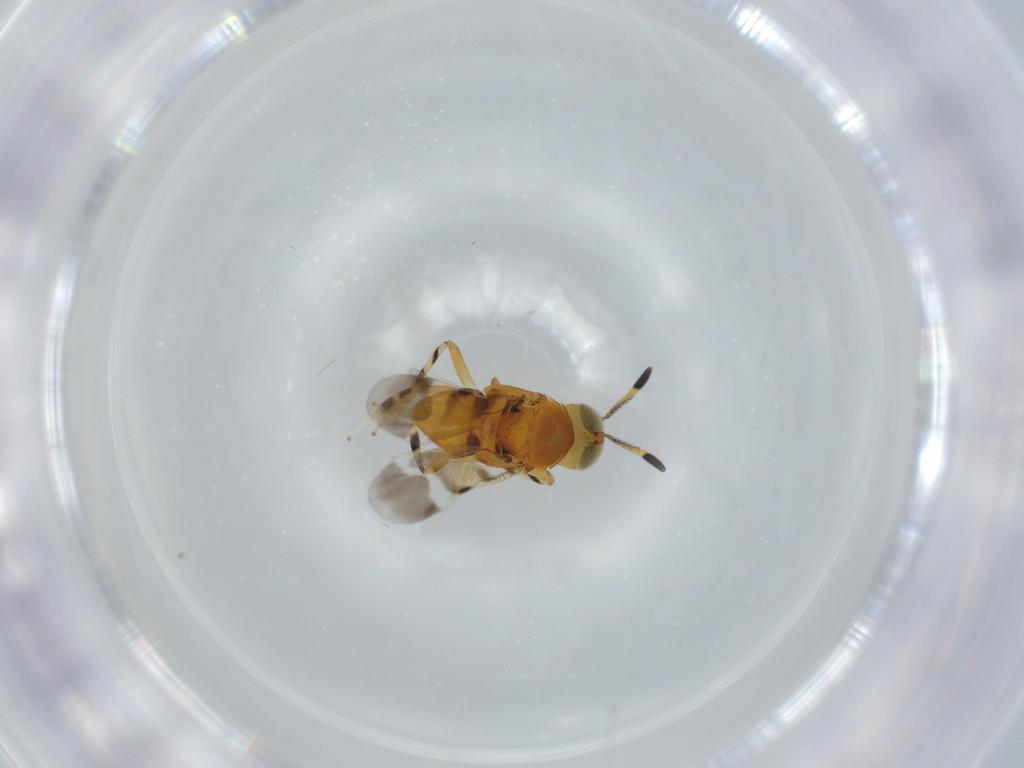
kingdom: Animalia
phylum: Arthropoda
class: Insecta
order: Hymenoptera
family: Encyrtidae
